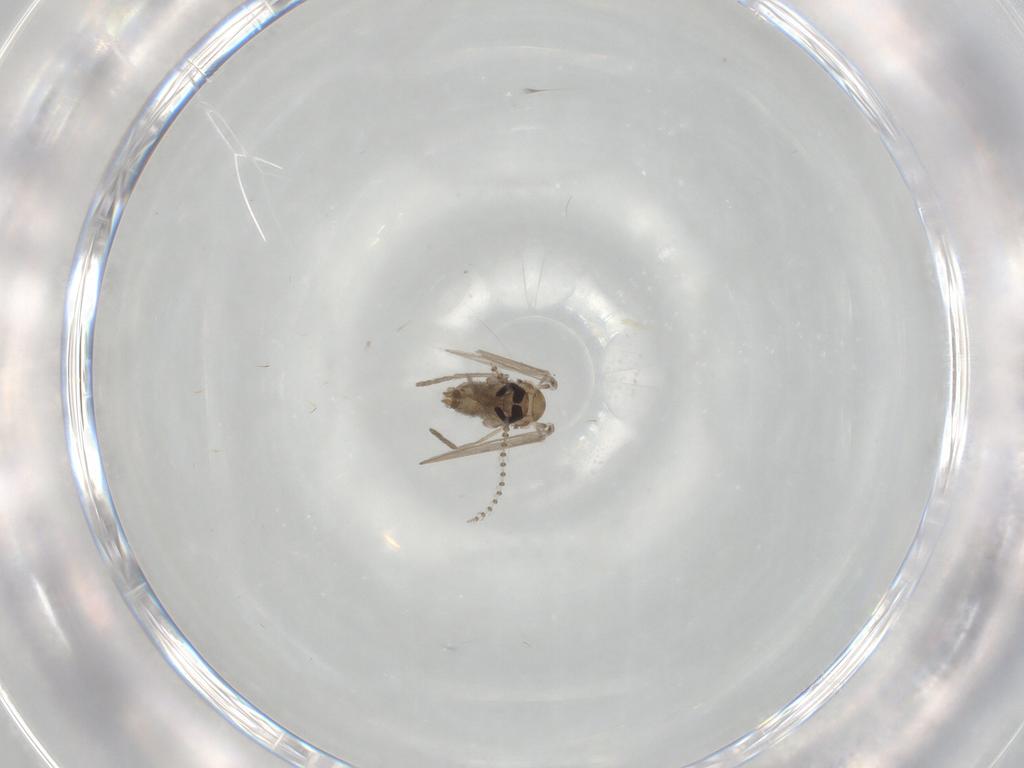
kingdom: Animalia
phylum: Arthropoda
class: Insecta
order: Diptera
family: Psychodidae
